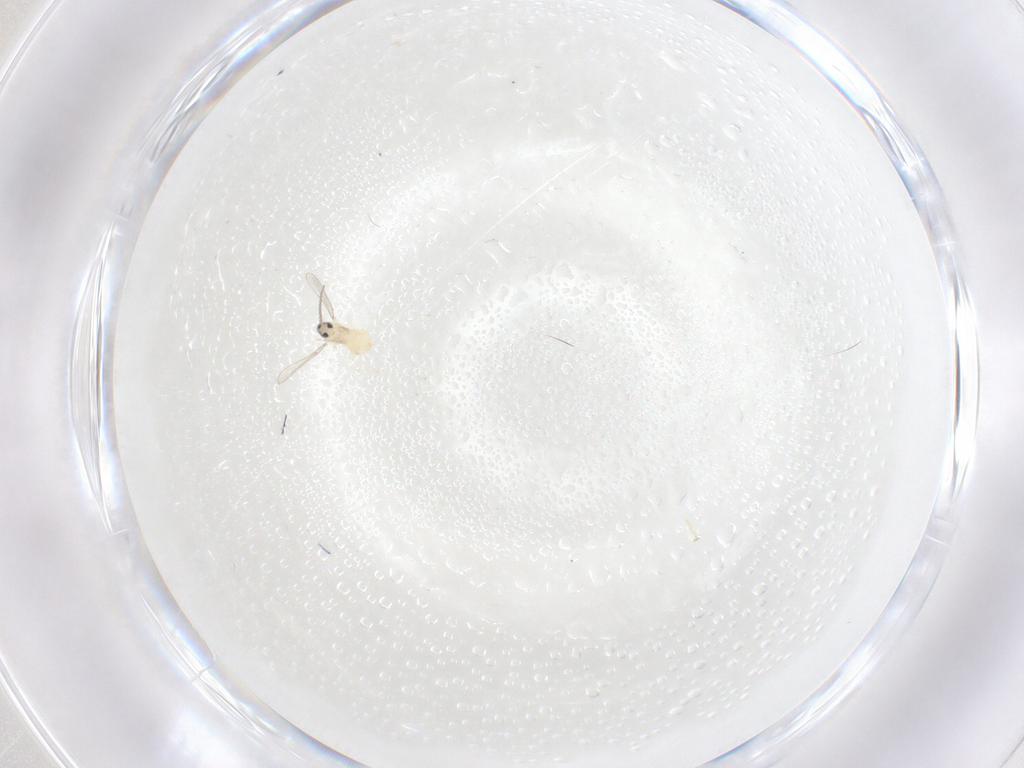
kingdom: Animalia
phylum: Arthropoda
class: Insecta
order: Diptera
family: Cecidomyiidae
